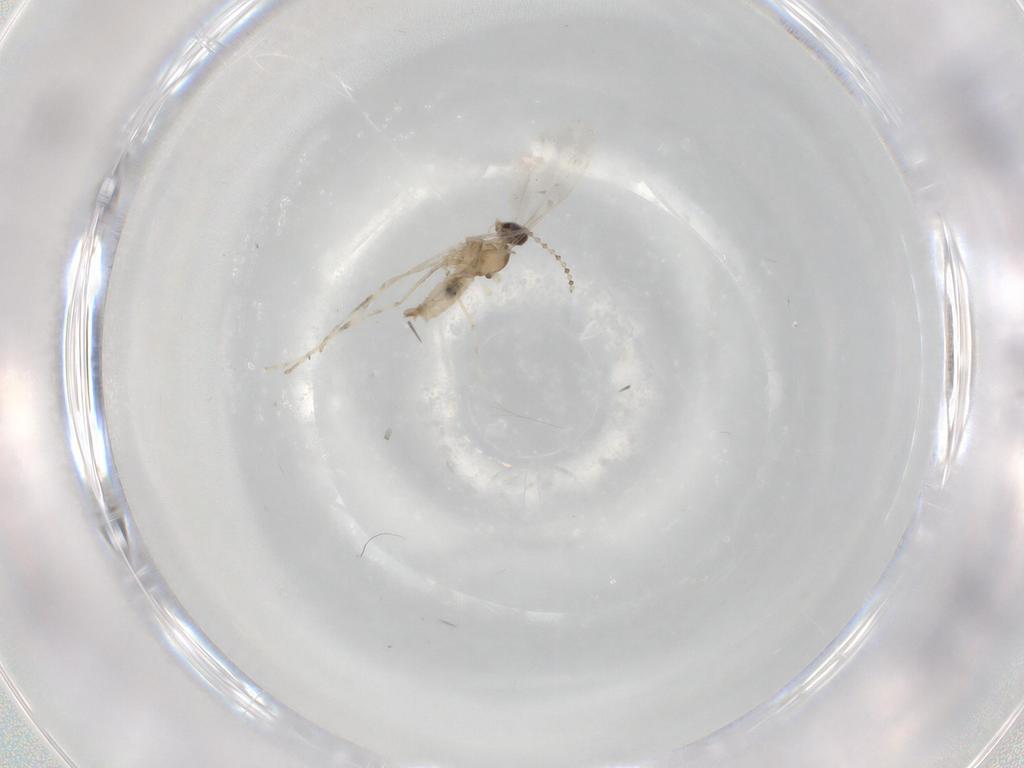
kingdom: Animalia
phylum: Arthropoda
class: Insecta
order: Diptera
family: Cecidomyiidae
